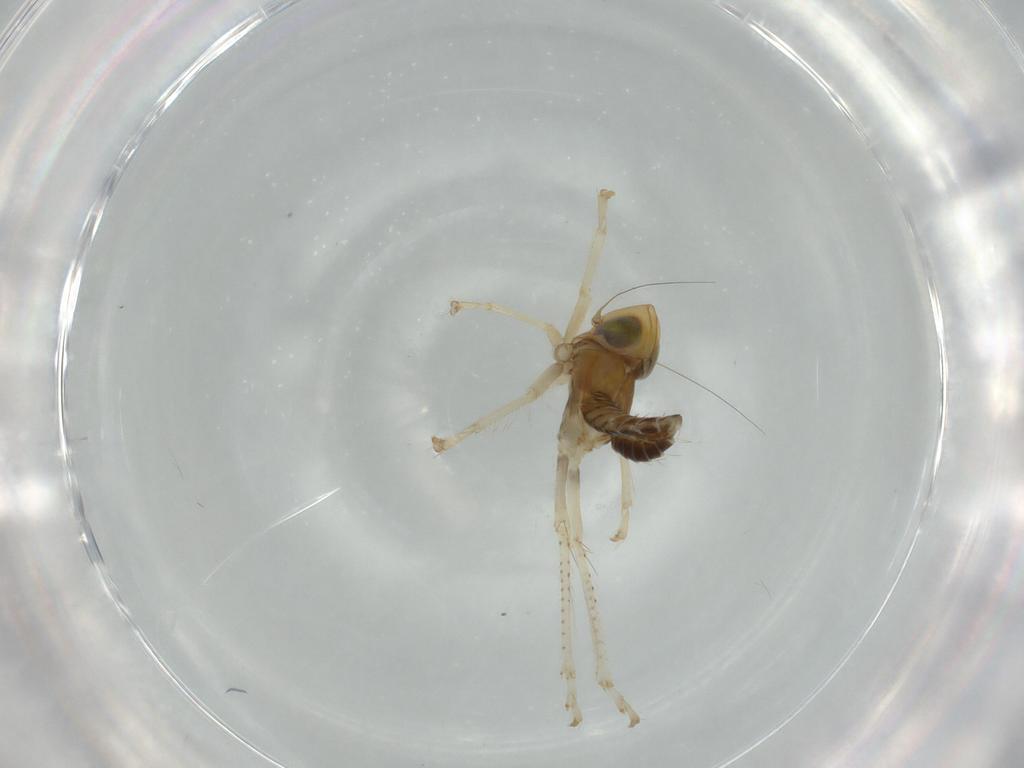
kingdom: Animalia
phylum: Arthropoda
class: Insecta
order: Hemiptera
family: Cicadellidae
